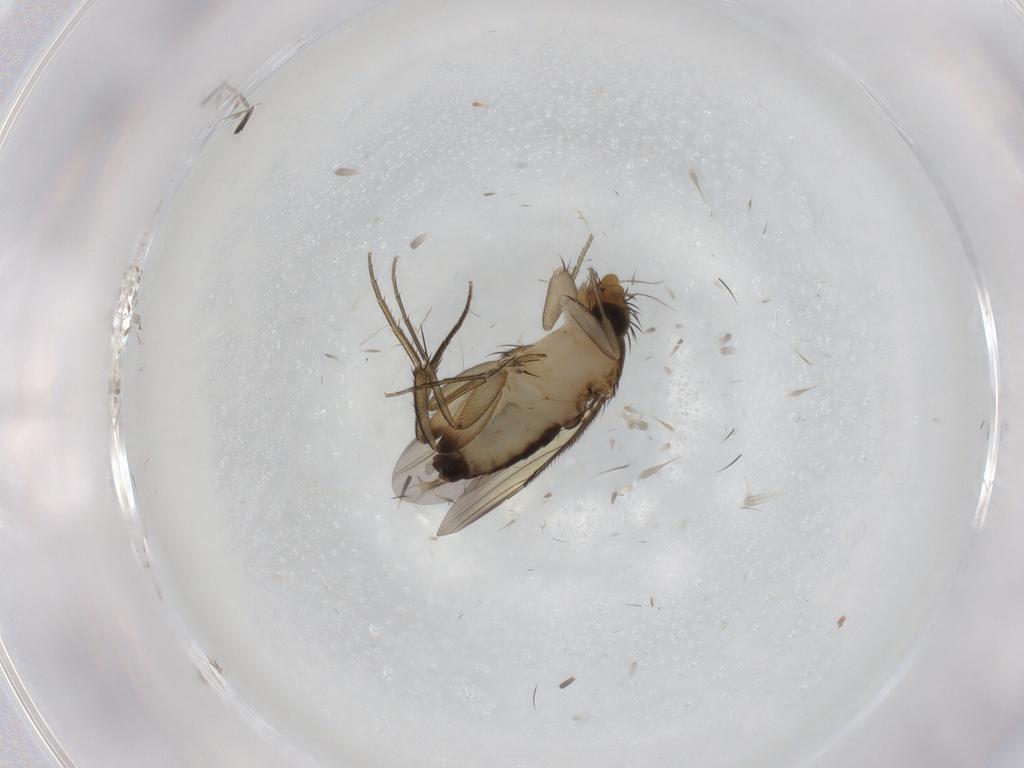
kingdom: Animalia
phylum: Arthropoda
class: Insecta
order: Diptera
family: Phoridae
